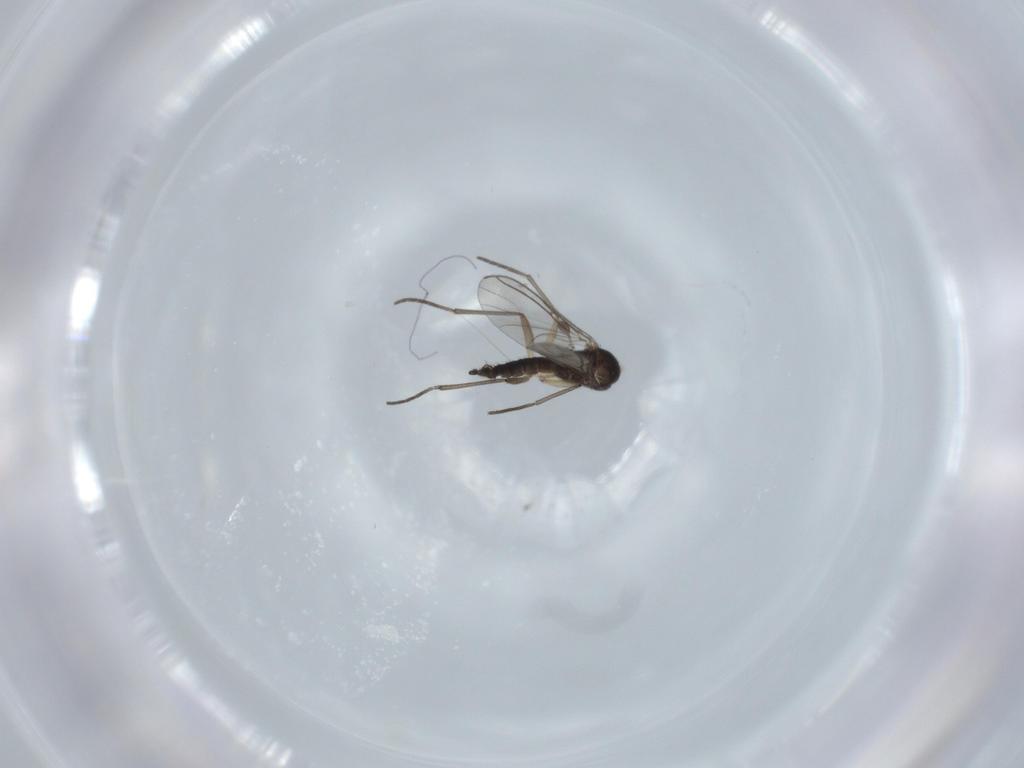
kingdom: Animalia
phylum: Arthropoda
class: Insecta
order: Diptera
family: Sciaridae
